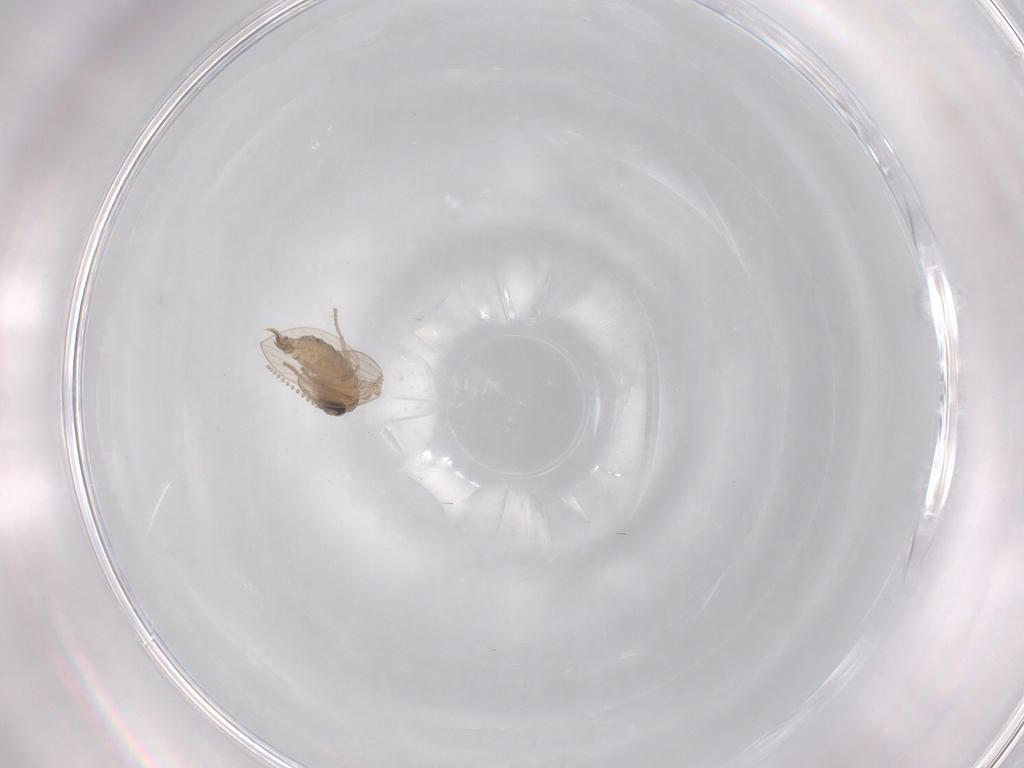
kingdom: Animalia
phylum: Arthropoda
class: Insecta
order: Diptera
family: Psychodidae
